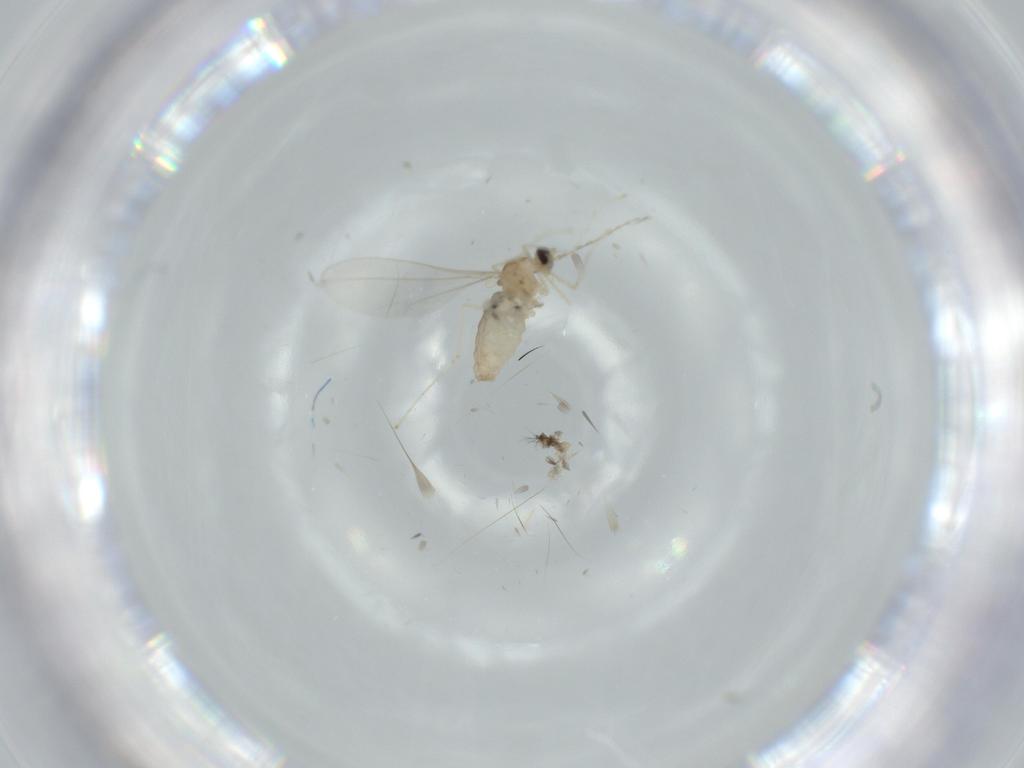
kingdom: Animalia
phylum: Arthropoda
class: Insecta
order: Diptera
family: Cecidomyiidae
